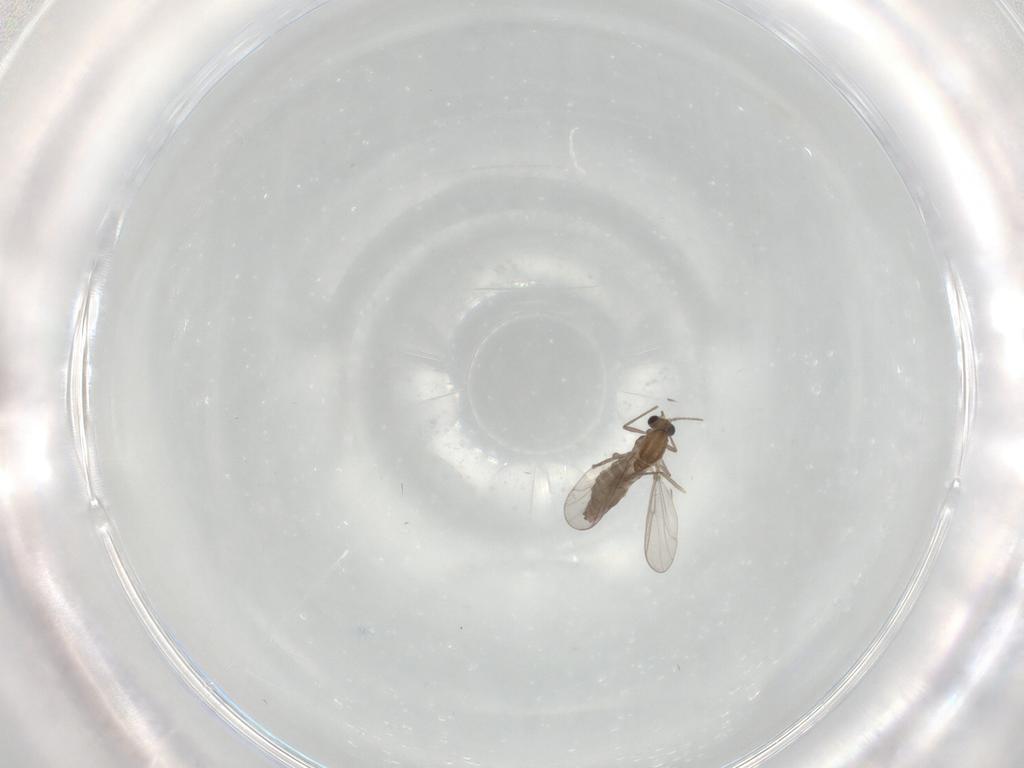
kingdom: Animalia
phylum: Arthropoda
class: Insecta
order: Diptera
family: Chironomidae
